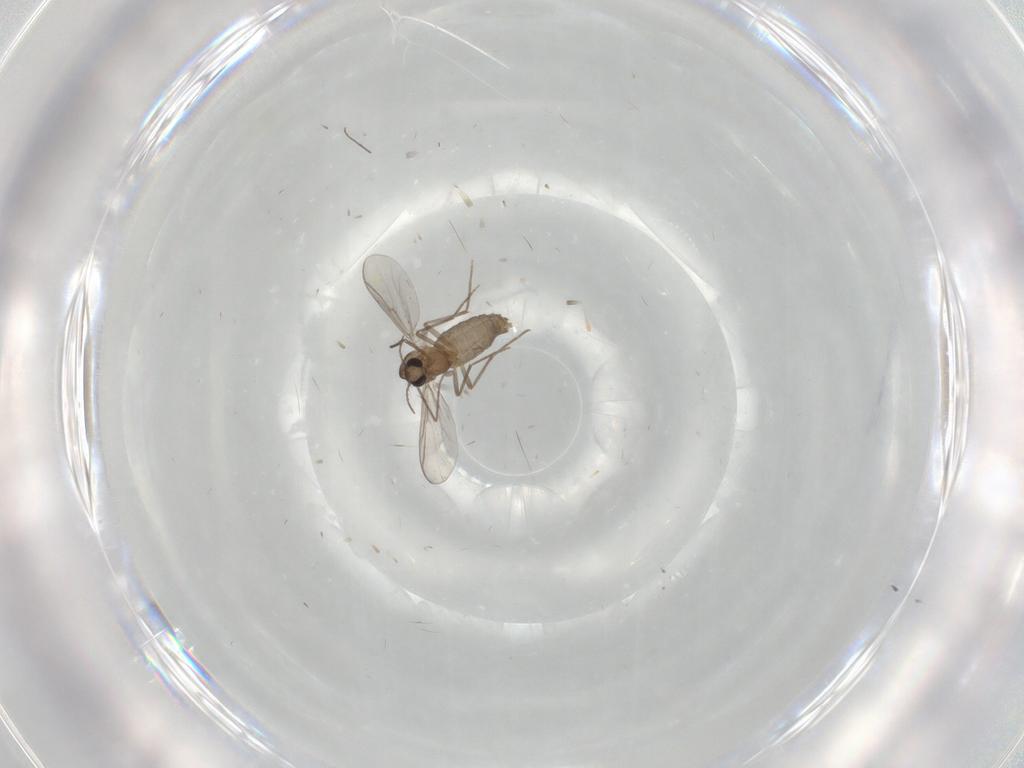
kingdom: Animalia
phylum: Arthropoda
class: Insecta
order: Diptera
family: Chironomidae
